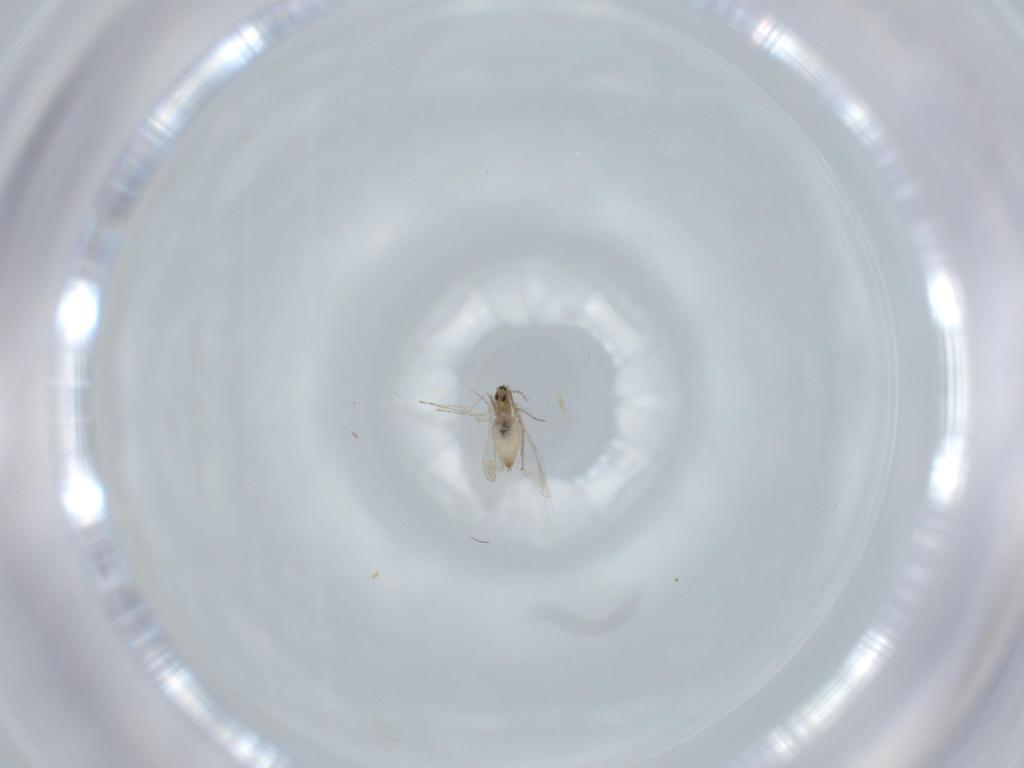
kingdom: Animalia
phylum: Arthropoda
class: Insecta
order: Diptera
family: Cecidomyiidae
